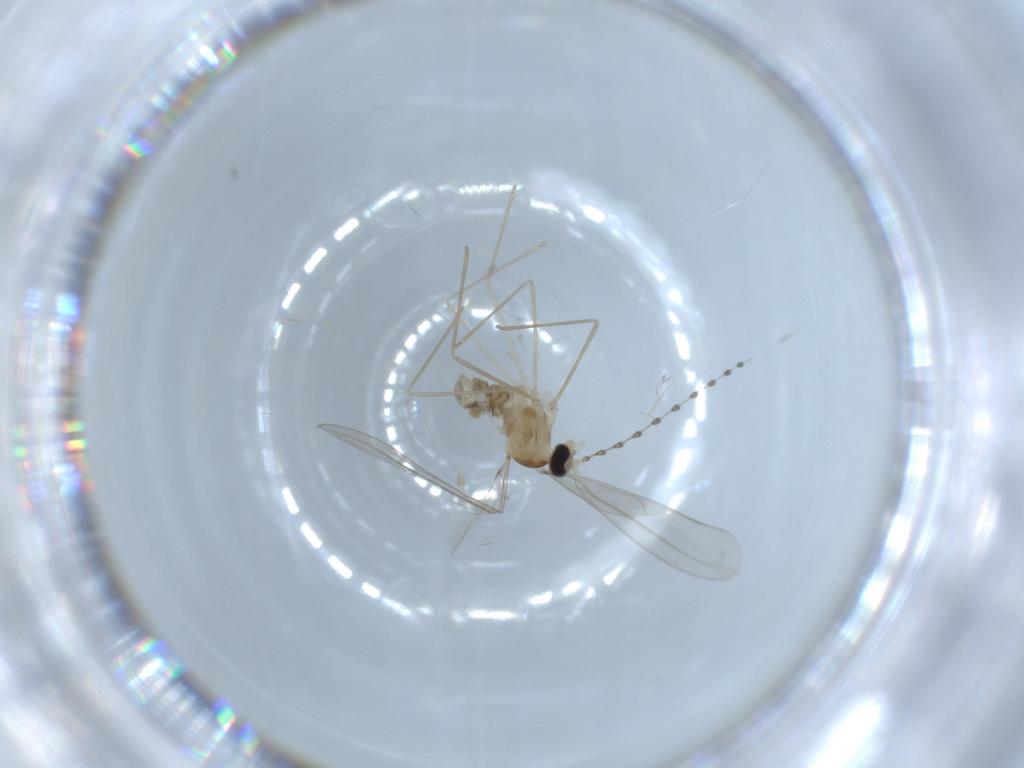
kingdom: Animalia
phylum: Arthropoda
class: Insecta
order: Diptera
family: Cecidomyiidae
